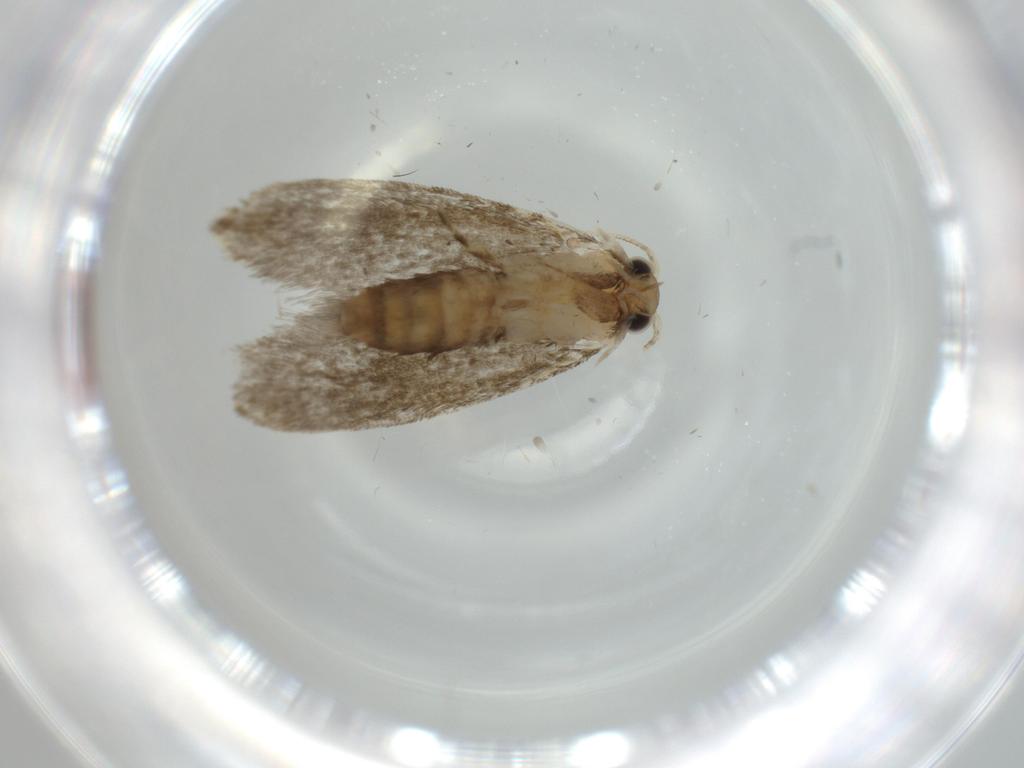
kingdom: Animalia
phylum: Arthropoda
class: Insecta
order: Lepidoptera
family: Tineidae
